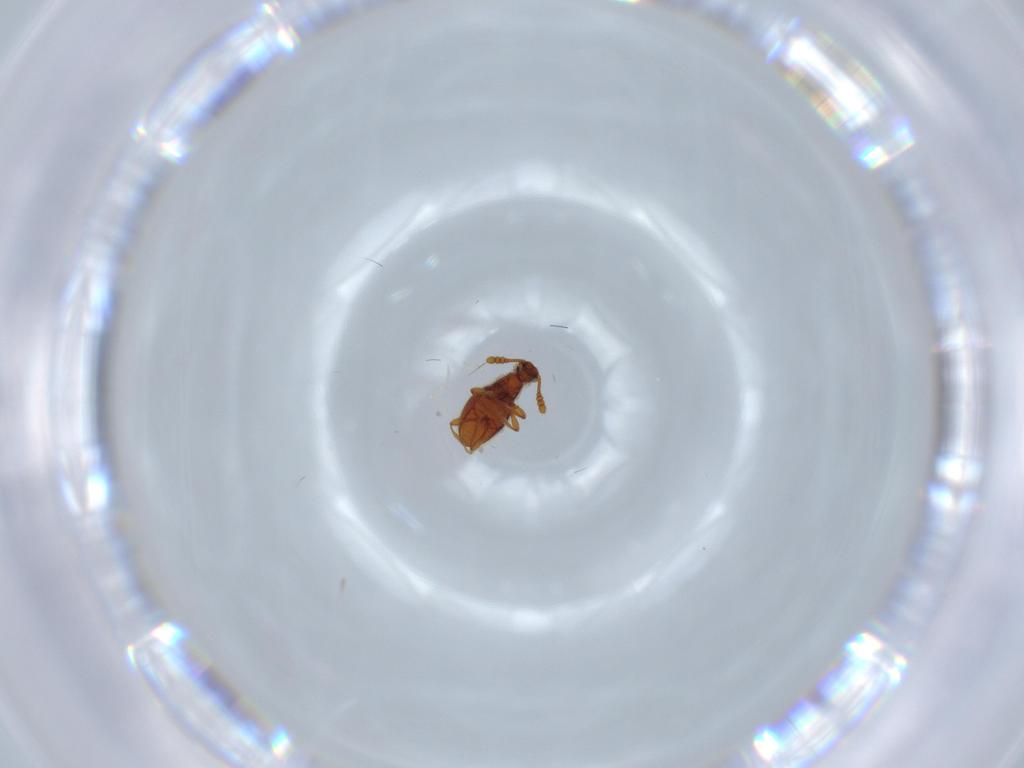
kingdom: Animalia
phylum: Arthropoda
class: Insecta
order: Coleoptera
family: Staphylinidae
